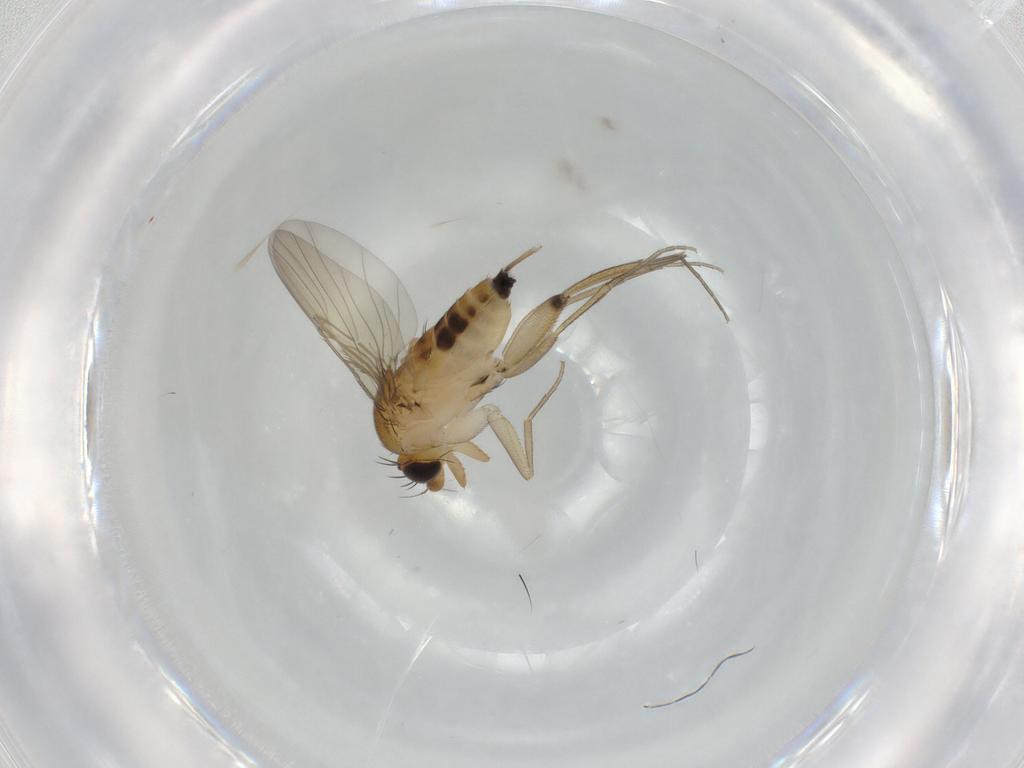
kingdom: Animalia
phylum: Arthropoda
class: Insecta
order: Diptera
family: Phoridae
